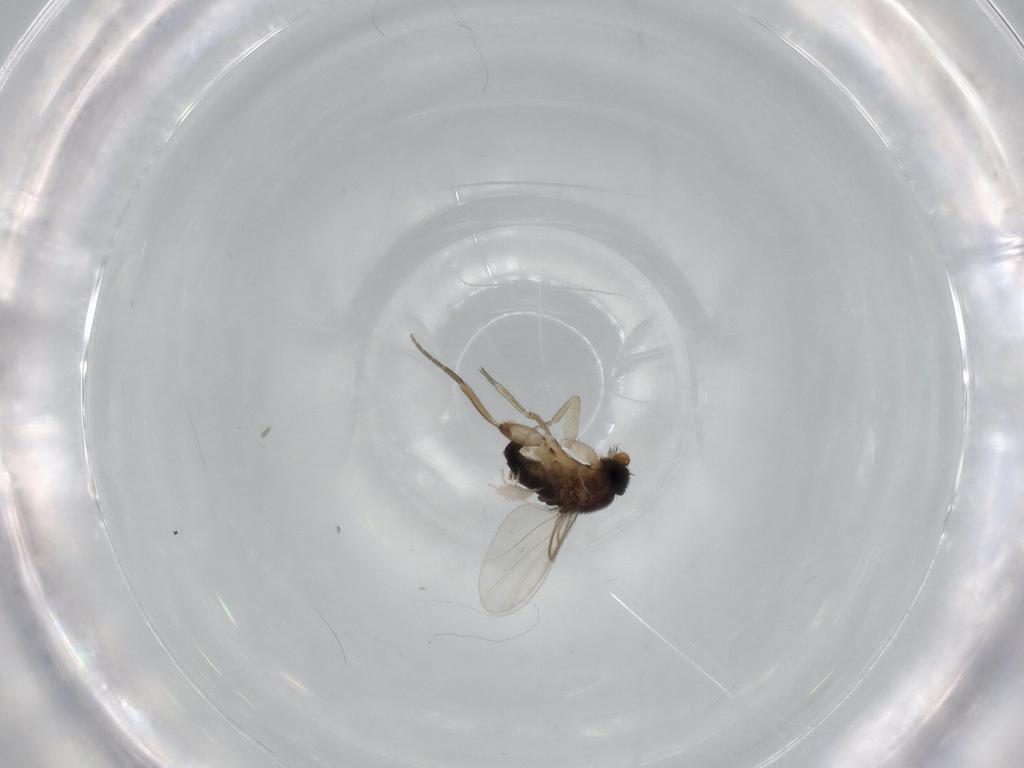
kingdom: Animalia
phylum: Arthropoda
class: Insecta
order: Diptera
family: Phoridae
